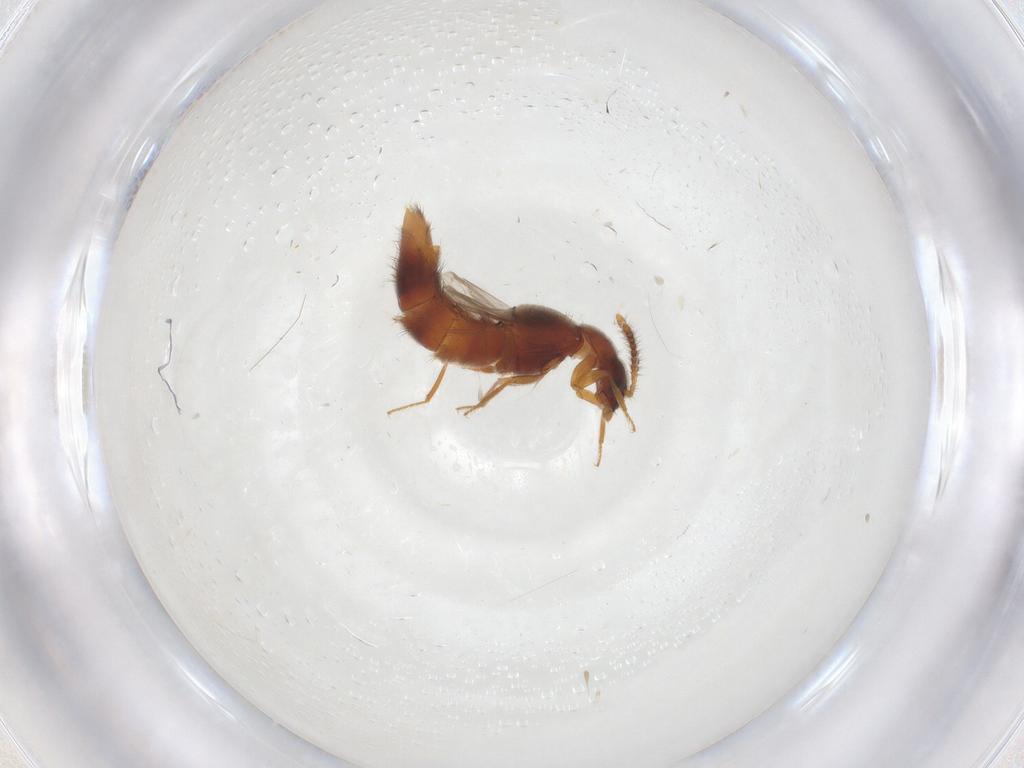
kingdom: Animalia
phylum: Arthropoda
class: Insecta
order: Coleoptera
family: Staphylinidae
